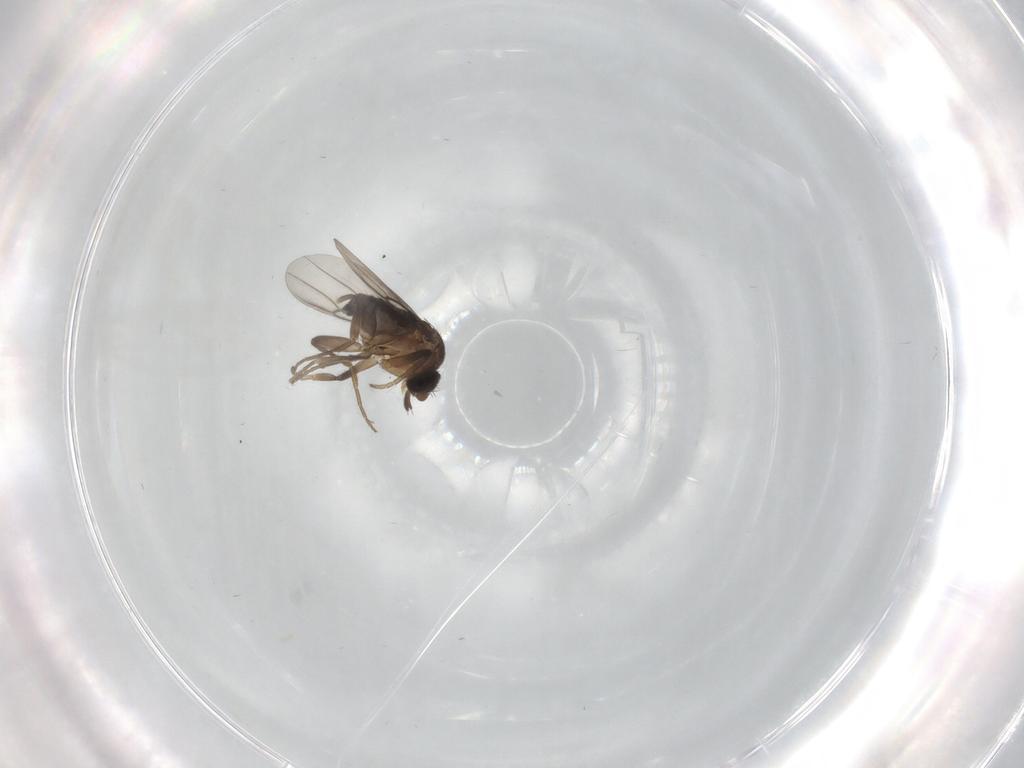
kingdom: Animalia
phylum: Arthropoda
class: Insecta
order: Diptera
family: Phoridae
